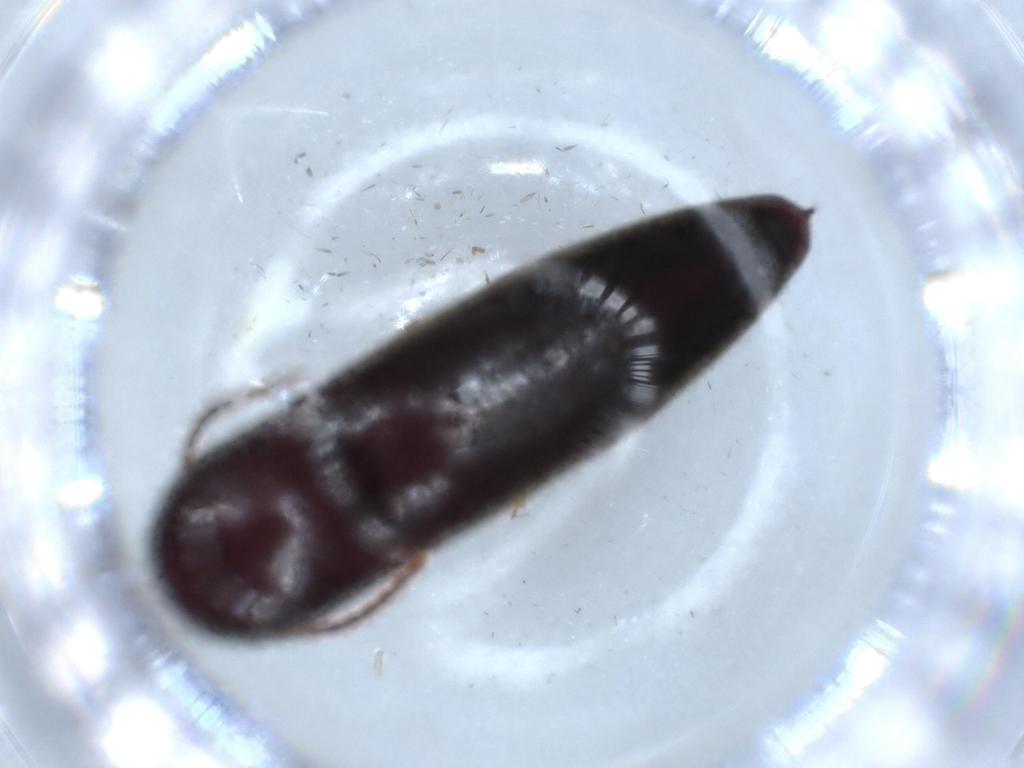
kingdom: Animalia
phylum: Arthropoda
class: Insecta
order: Coleoptera
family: Eucnemidae
